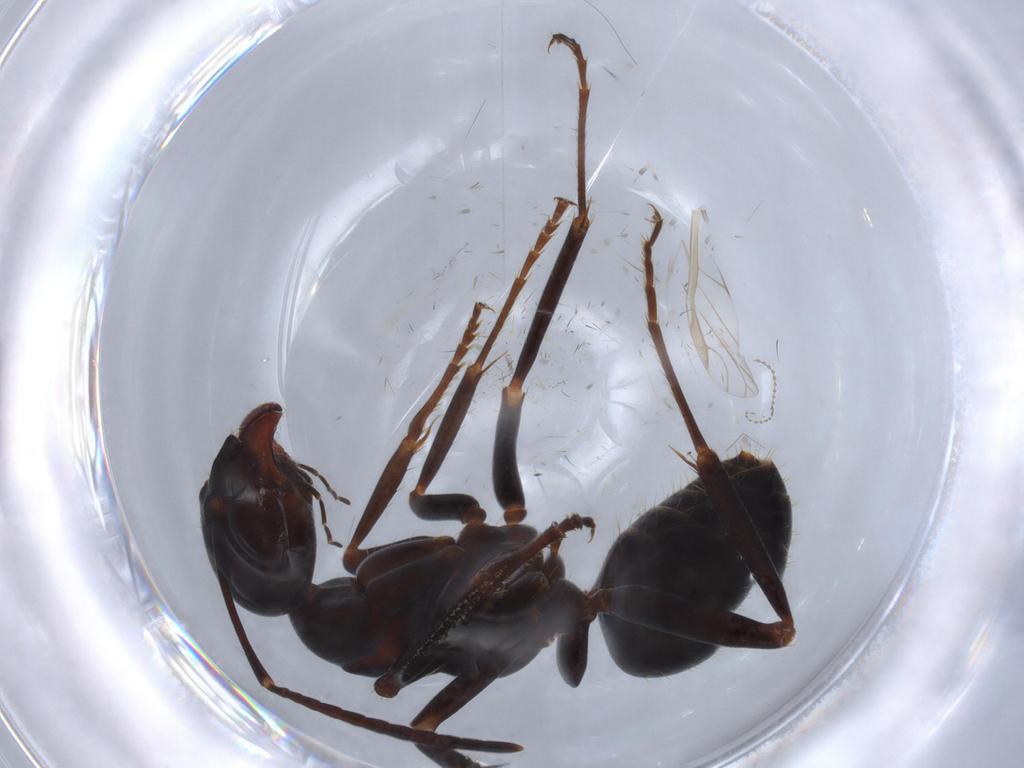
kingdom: Animalia
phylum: Arthropoda
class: Insecta
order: Hymenoptera
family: Formicidae
